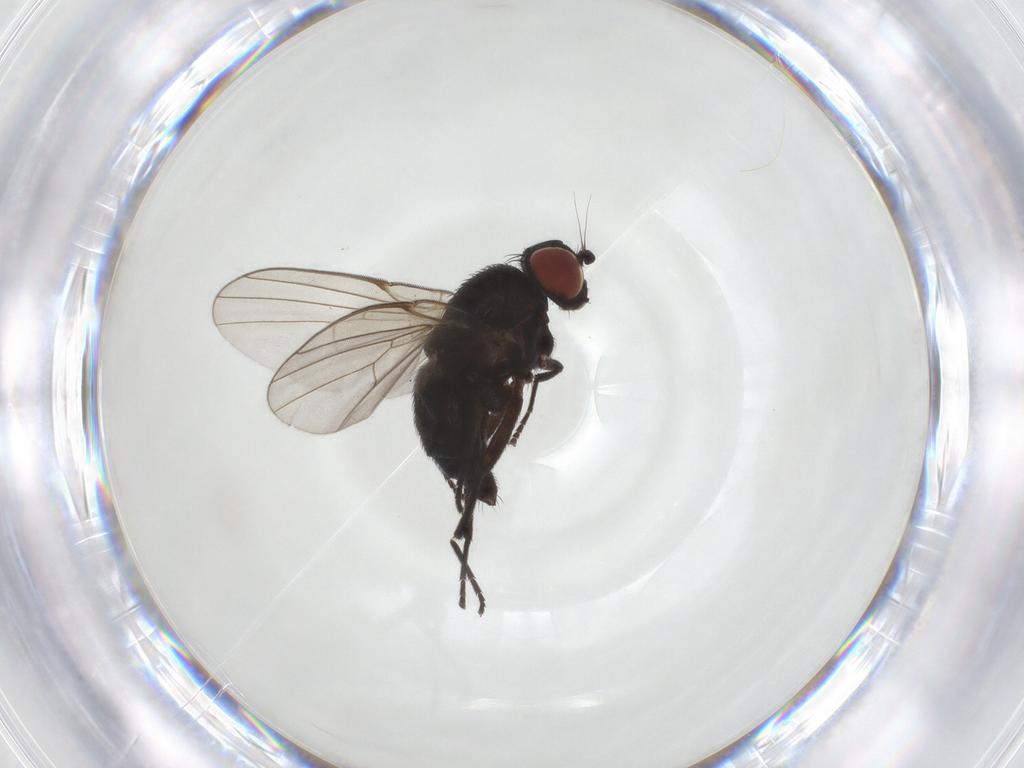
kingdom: Animalia
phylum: Arthropoda
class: Insecta
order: Diptera
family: Agromyzidae
